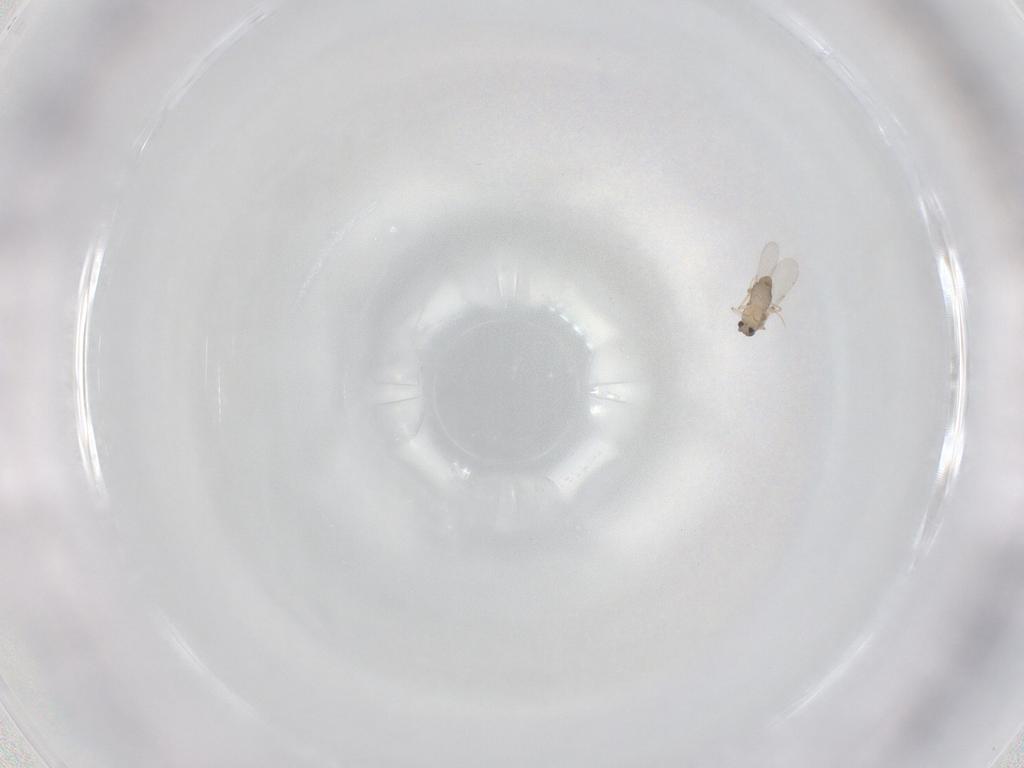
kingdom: Animalia
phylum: Arthropoda
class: Insecta
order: Diptera
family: Ceratopogonidae
